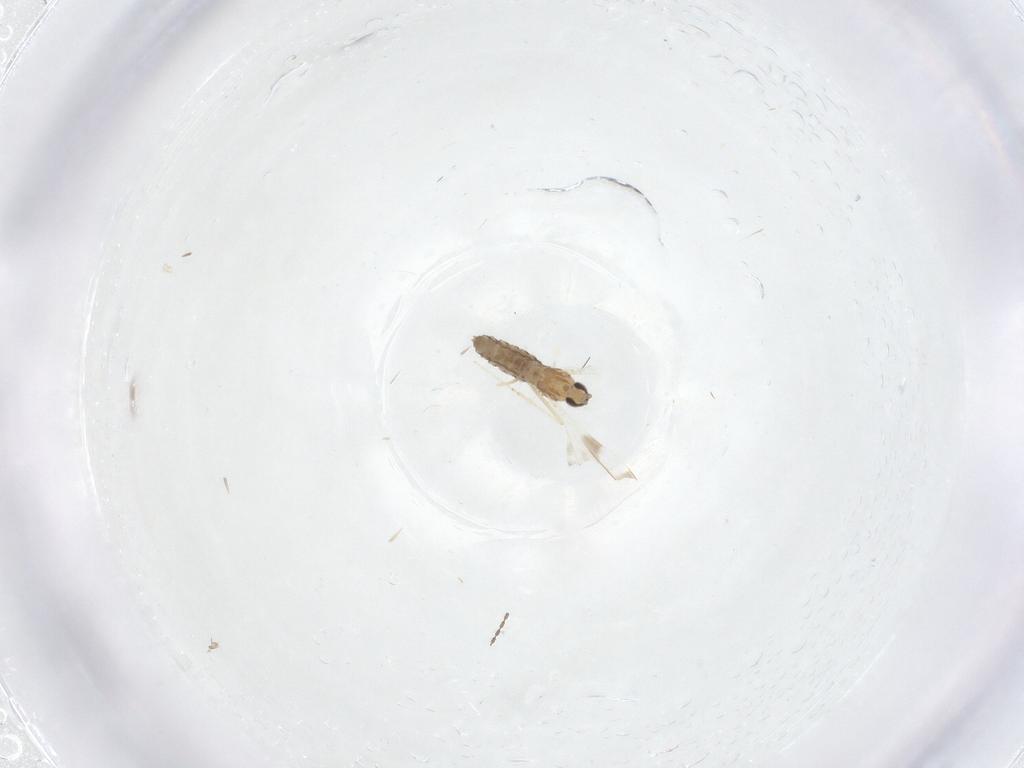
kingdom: Animalia
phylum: Arthropoda
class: Insecta
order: Diptera
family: Cecidomyiidae
